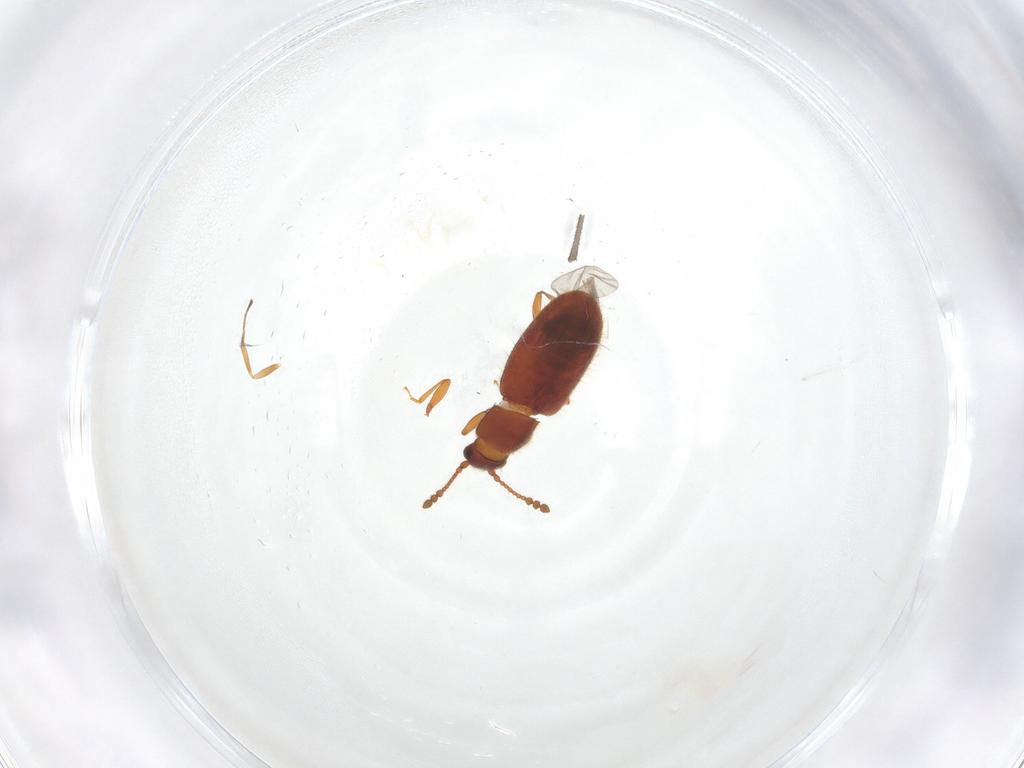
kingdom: Animalia
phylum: Arthropoda
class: Insecta
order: Coleoptera
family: Cryptophagidae
